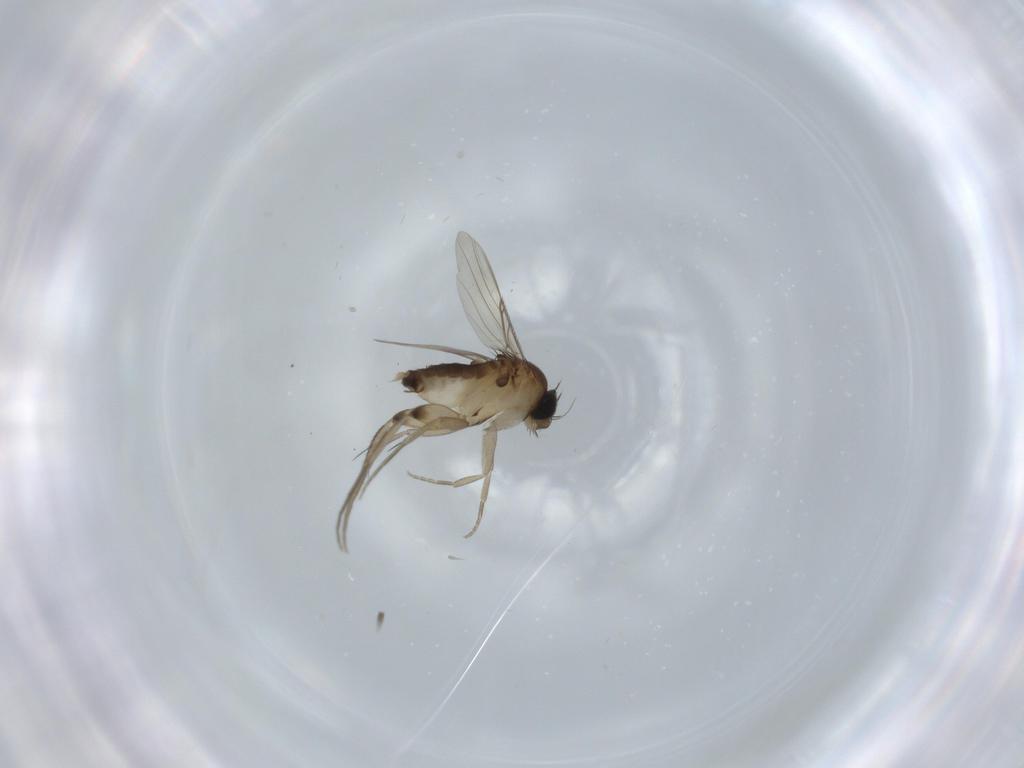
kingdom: Animalia
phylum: Arthropoda
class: Insecta
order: Diptera
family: Phoridae
